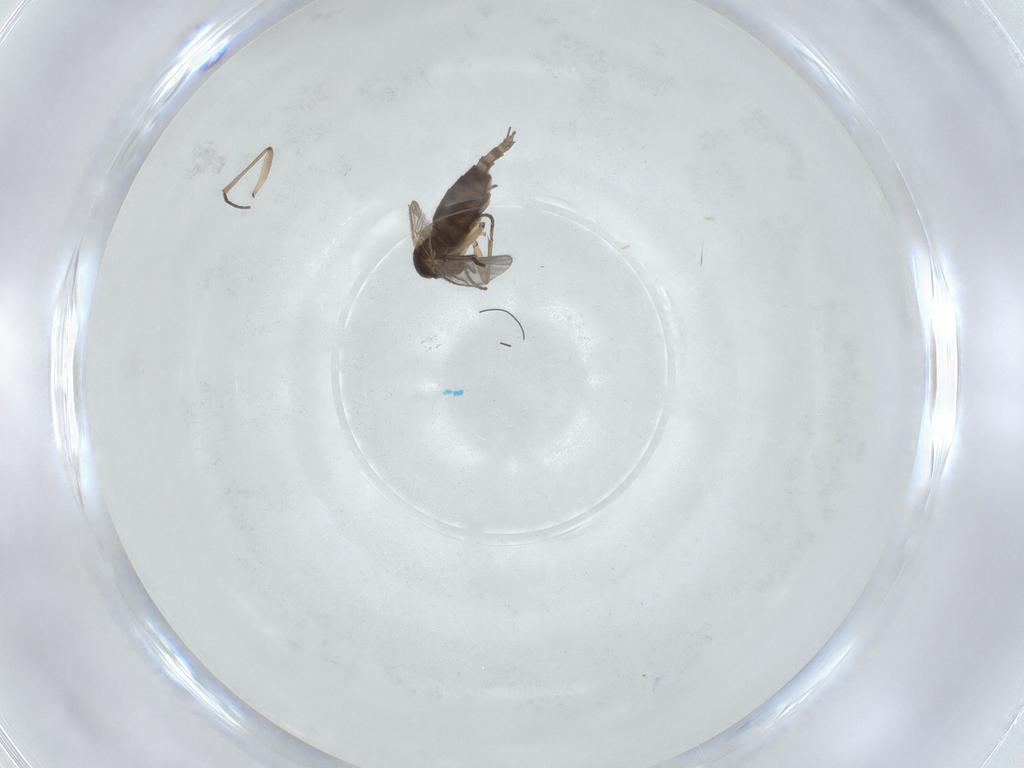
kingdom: Animalia
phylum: Arthropoda
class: Insecta
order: Diptera
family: Sciaridae
